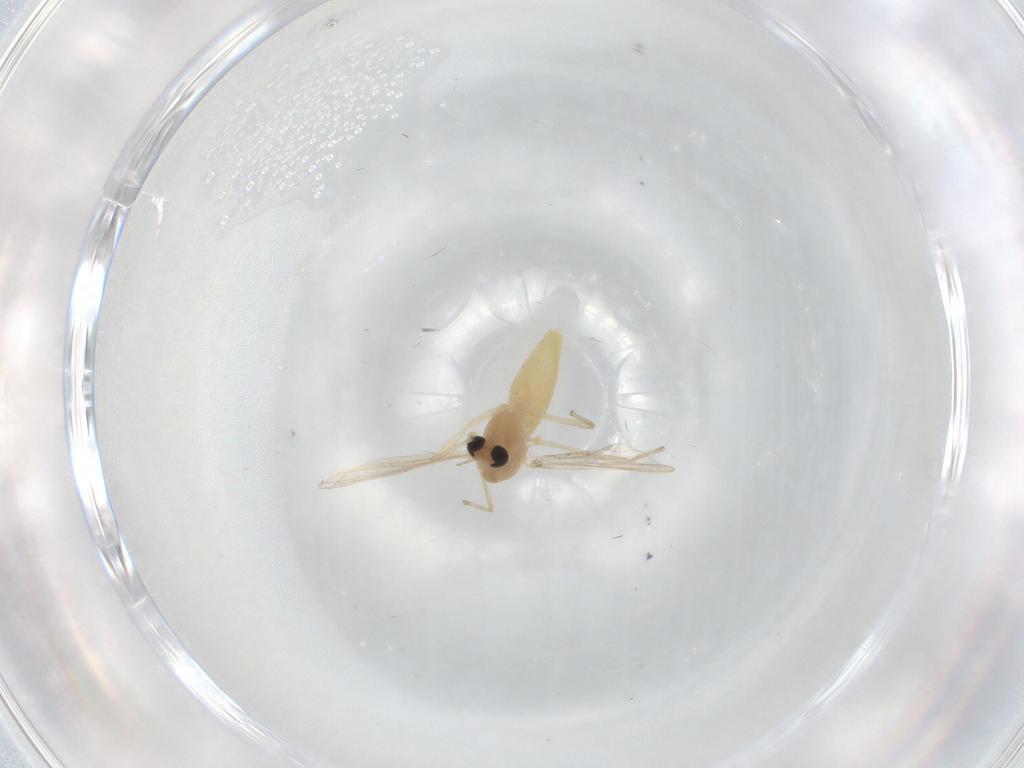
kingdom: Animalia
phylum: Arthropoda
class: Insecta
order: Diptera
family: Chironomidae
